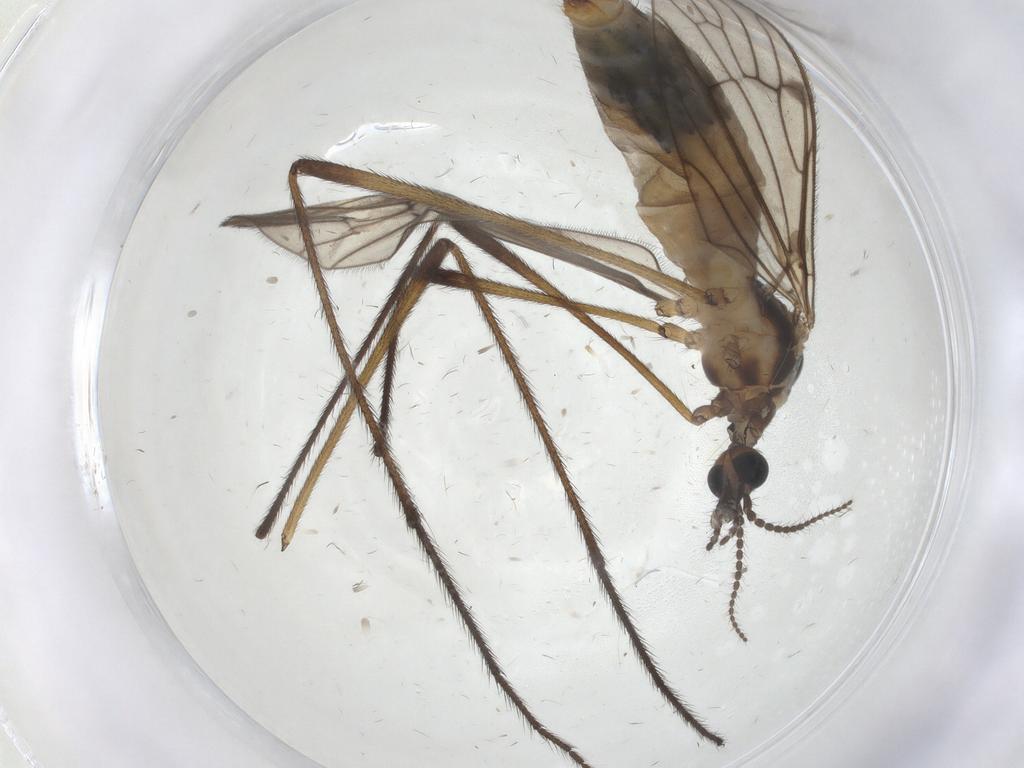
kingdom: Animalia
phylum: Arthropoda
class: Insecta
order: Diptera
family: Limoniidae
